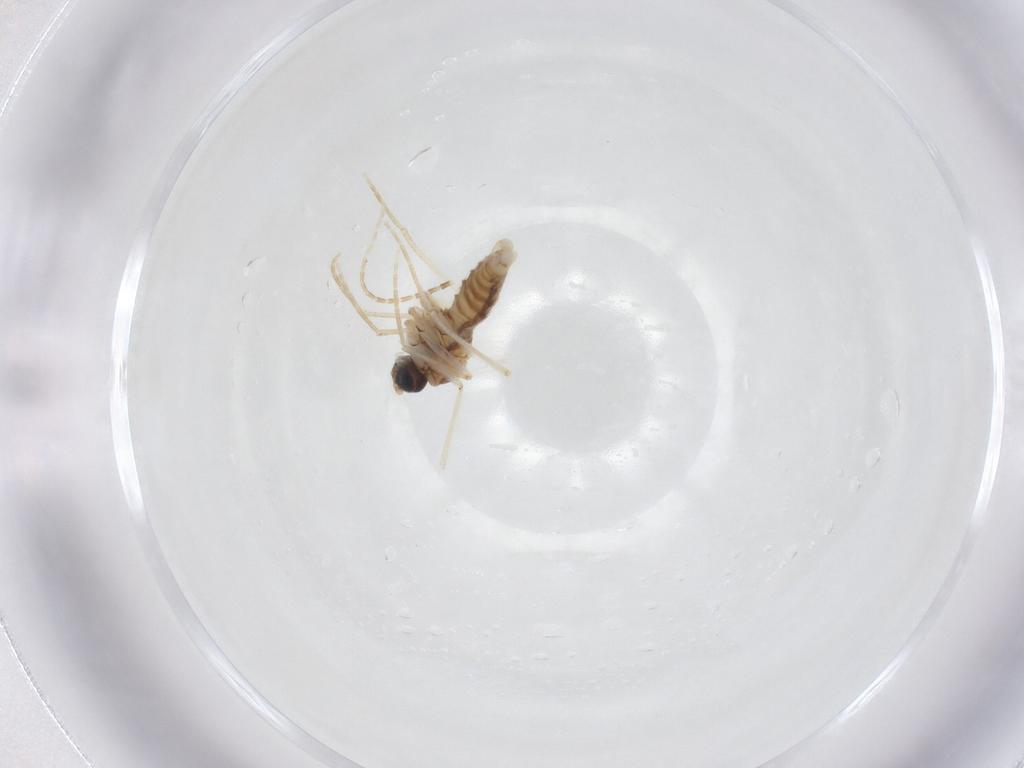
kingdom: Animalia
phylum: Arthropoda
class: Insecta
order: Diptera
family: Sciaridae
